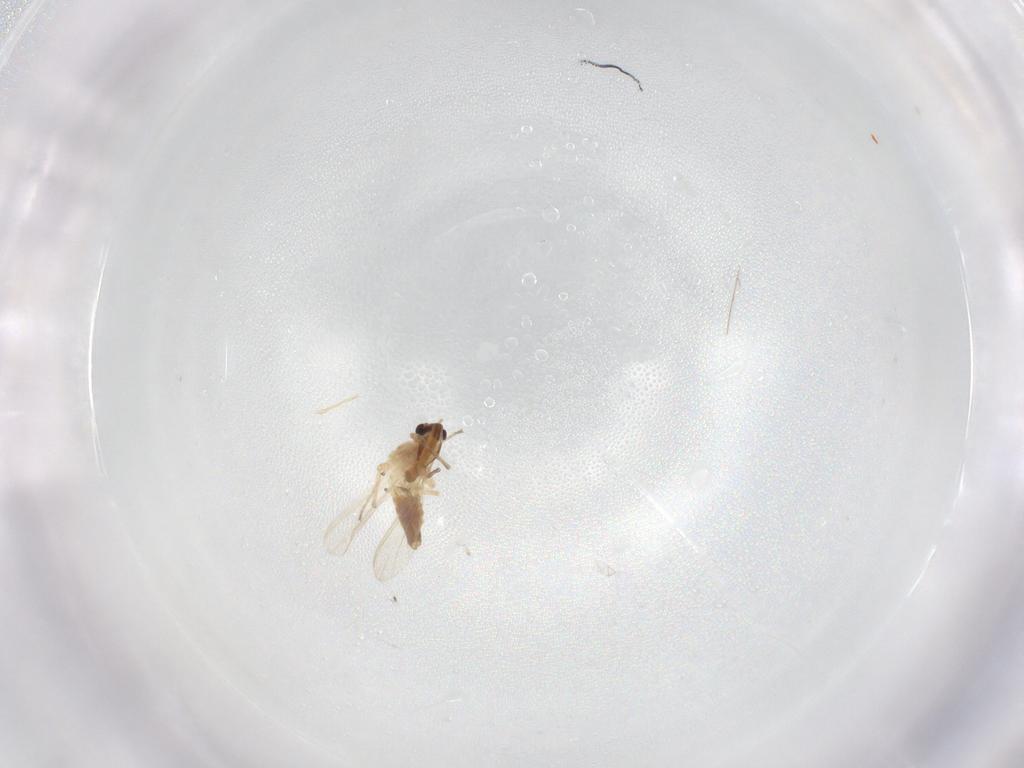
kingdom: Animalia
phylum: Arthropoda
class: Insecta
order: Diptera
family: Chironomidae
